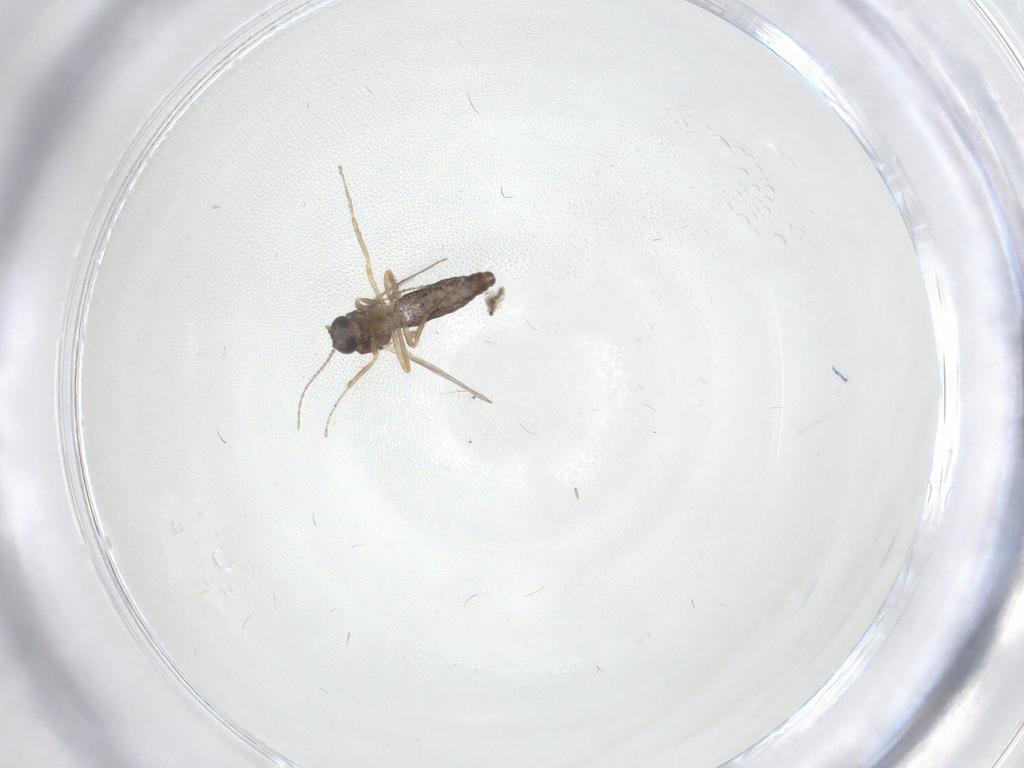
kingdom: Animalia
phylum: Arthropoda
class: Insecta
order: Diptera
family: Ceratopogonidae
